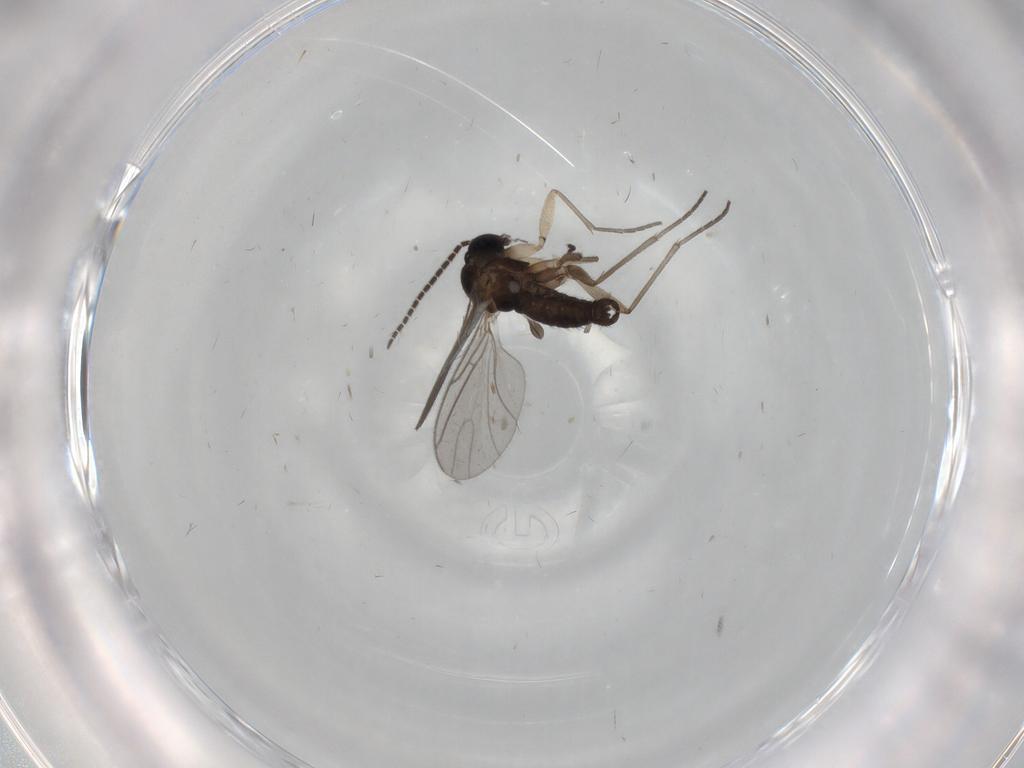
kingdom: Animalia
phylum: Arthropoda
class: Insecta
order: Diptera
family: Sciaridae
